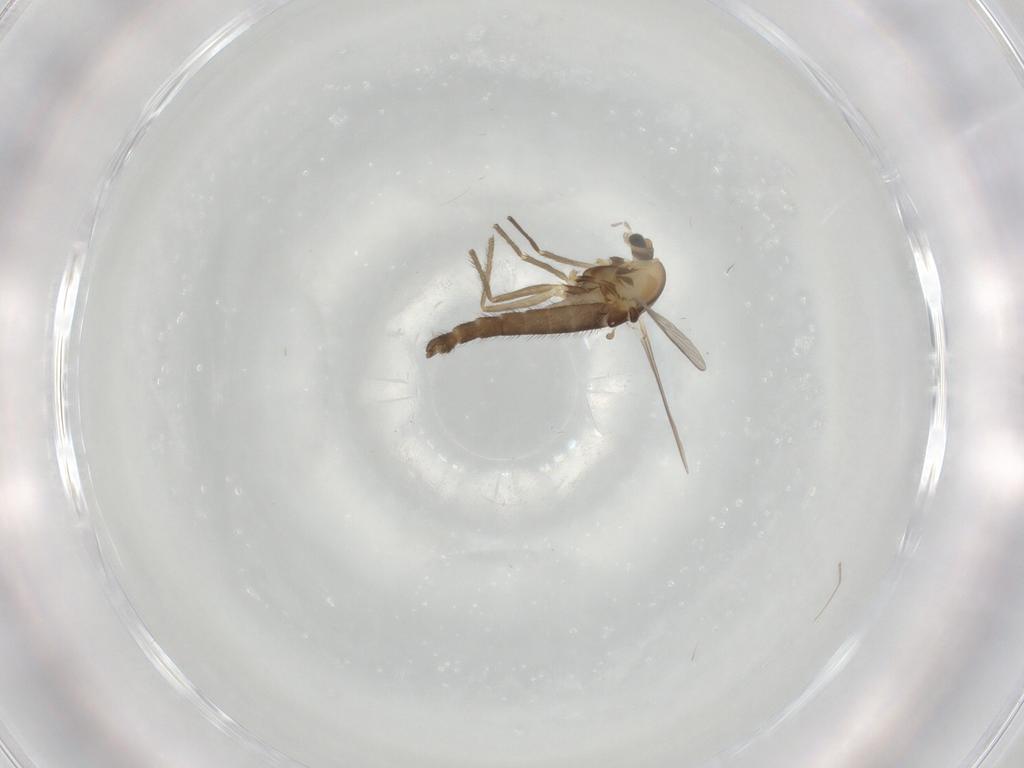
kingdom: Animalia
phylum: Arthropoda
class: Insecta
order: Diptera
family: Chironomidae
